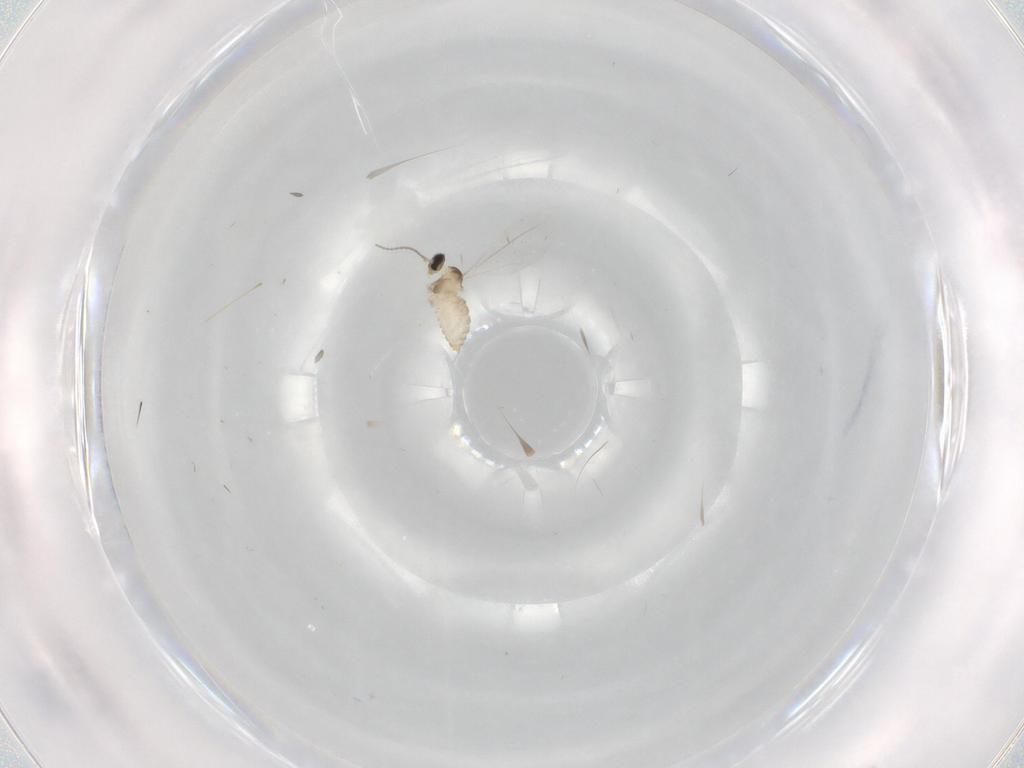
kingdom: Animalia
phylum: Arthropoda
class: Insecta
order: Diptera
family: Cecidomyiidae
